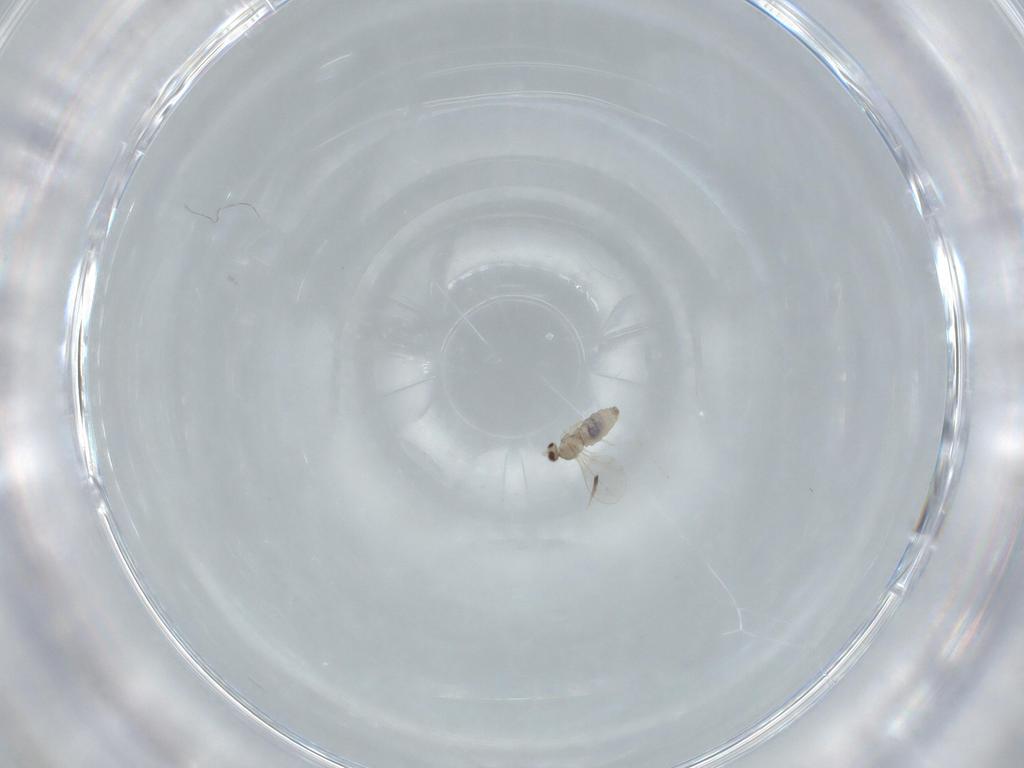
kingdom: Animalia
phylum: Arthropoda
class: Insecta
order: Diptera
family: Cecidomyiidae
